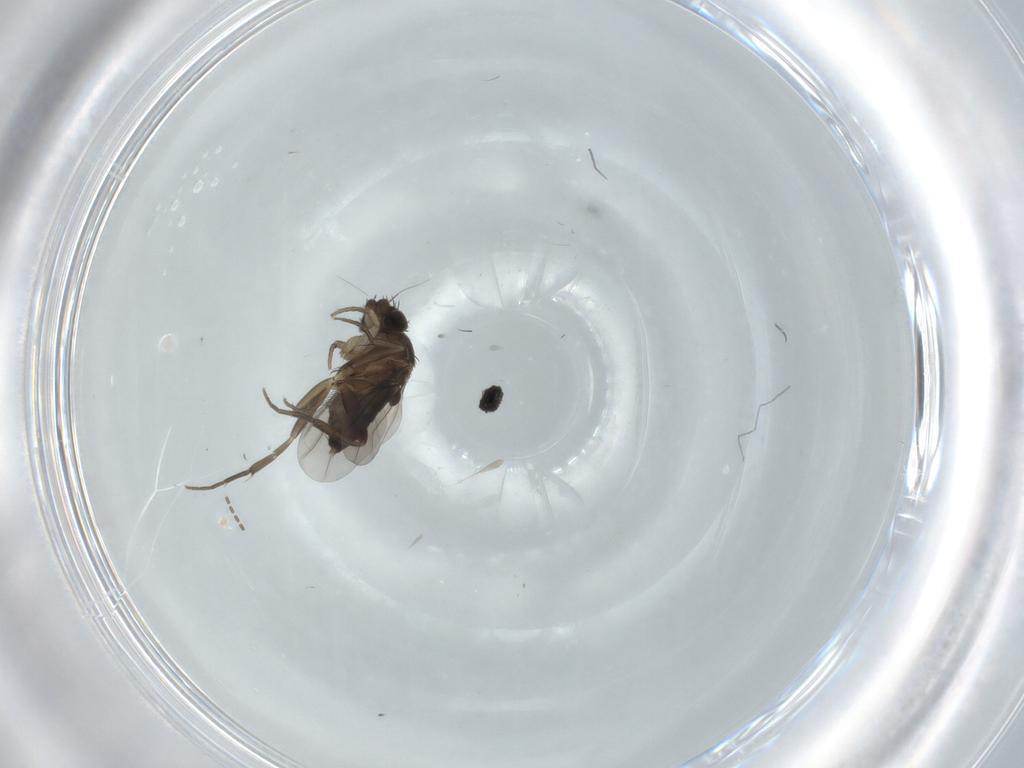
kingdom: Animalia
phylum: Arthropoda
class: Insecta
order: Diptera
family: Phoridae
